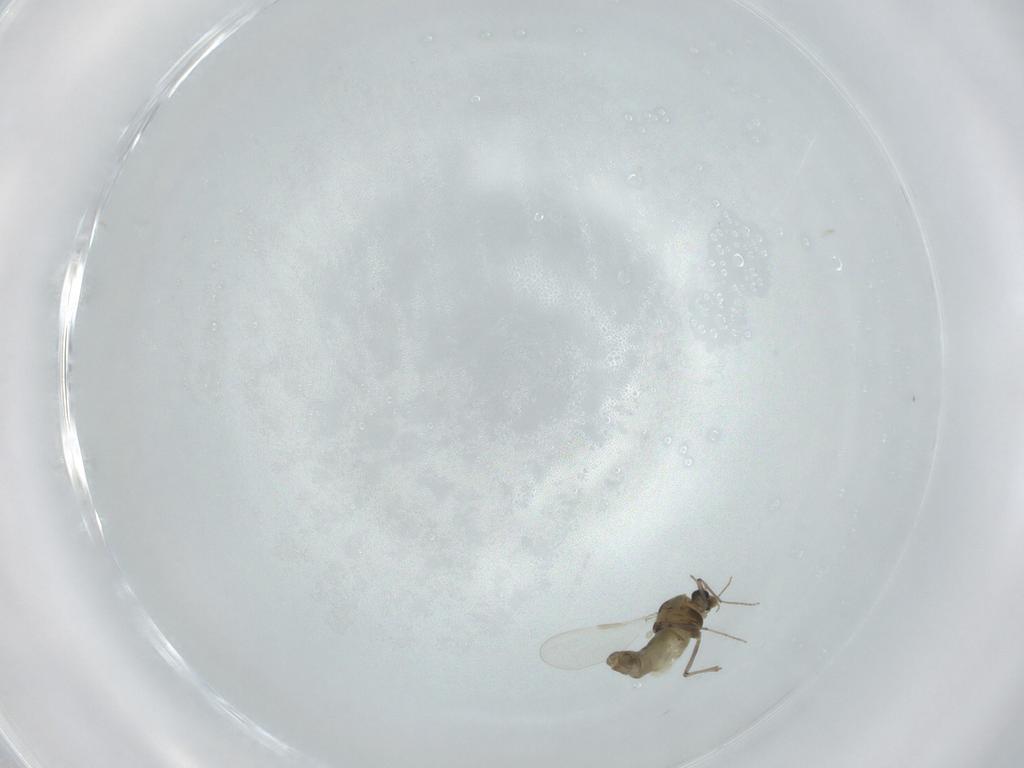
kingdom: Animalia
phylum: Arthropoda
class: Insecta
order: Diptera
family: Chironomidae
